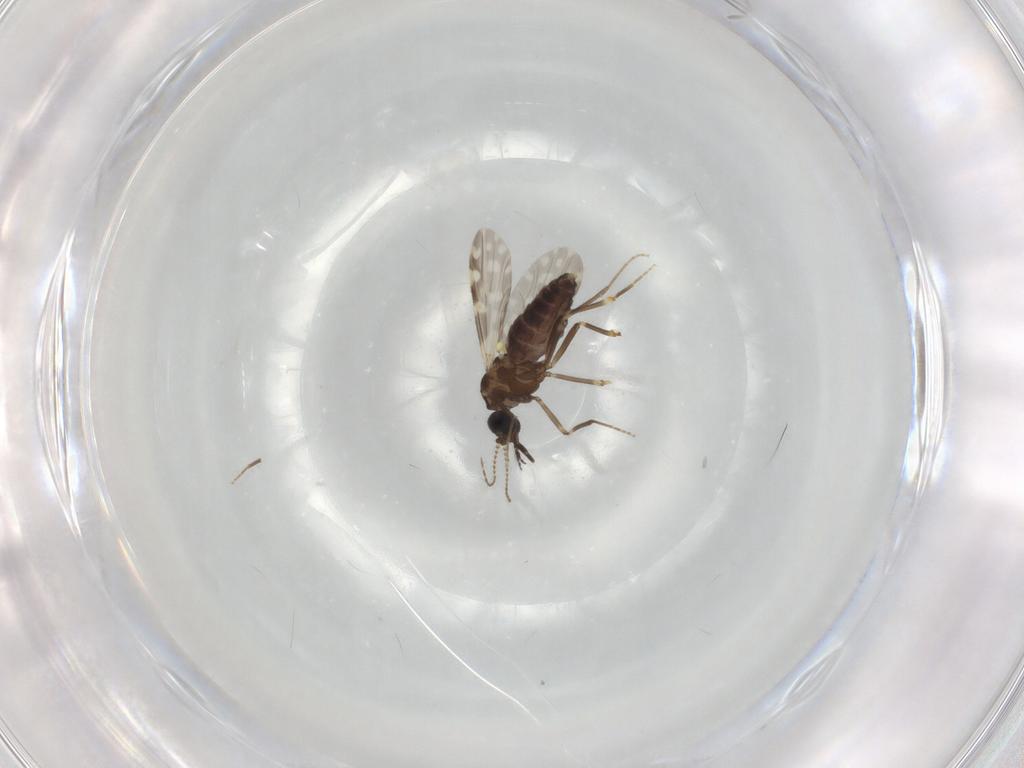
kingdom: Animalia
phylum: Arthropoda
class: Insecta
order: Diptera
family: Ceratopogonidae
